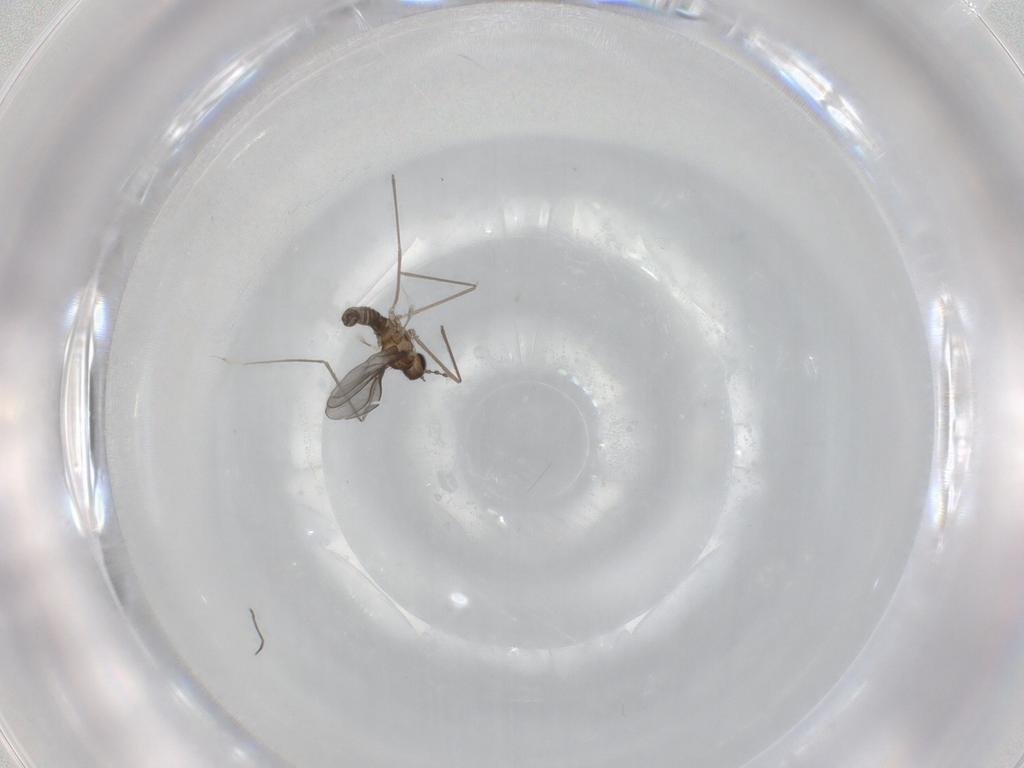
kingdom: Animalia
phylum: Arthropoda
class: Insecta
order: Diptera
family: Cecidomyiidae
